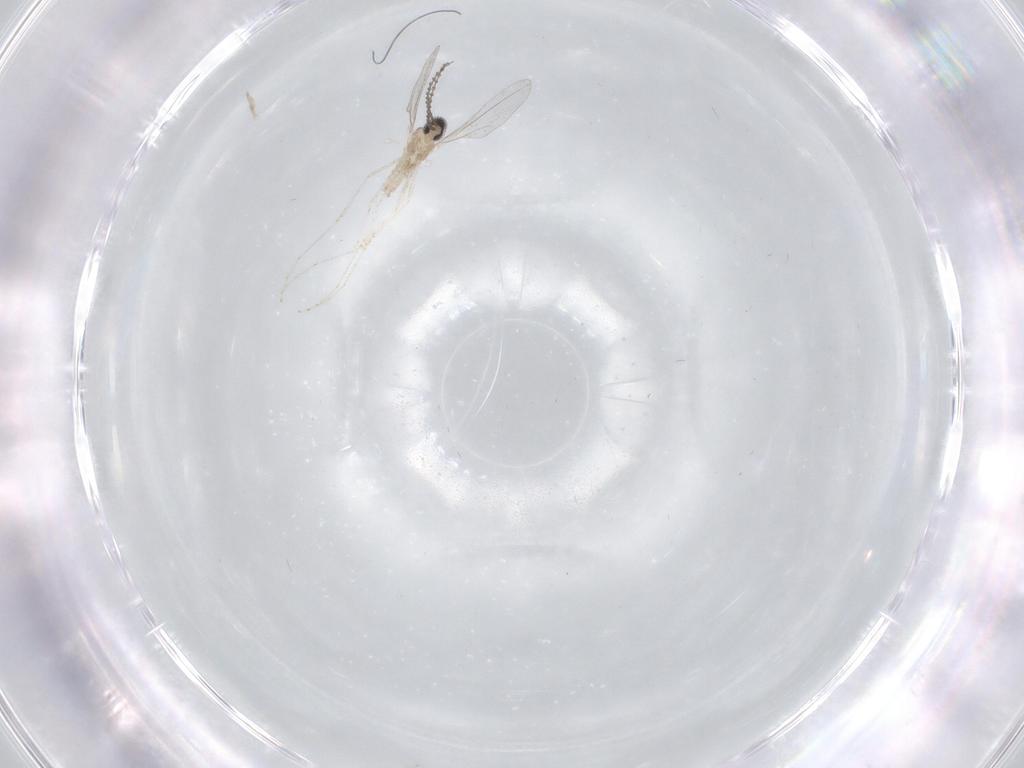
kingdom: Animalia
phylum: Arthropoda
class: Insecta
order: Diptera
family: Cecidomyiidae
